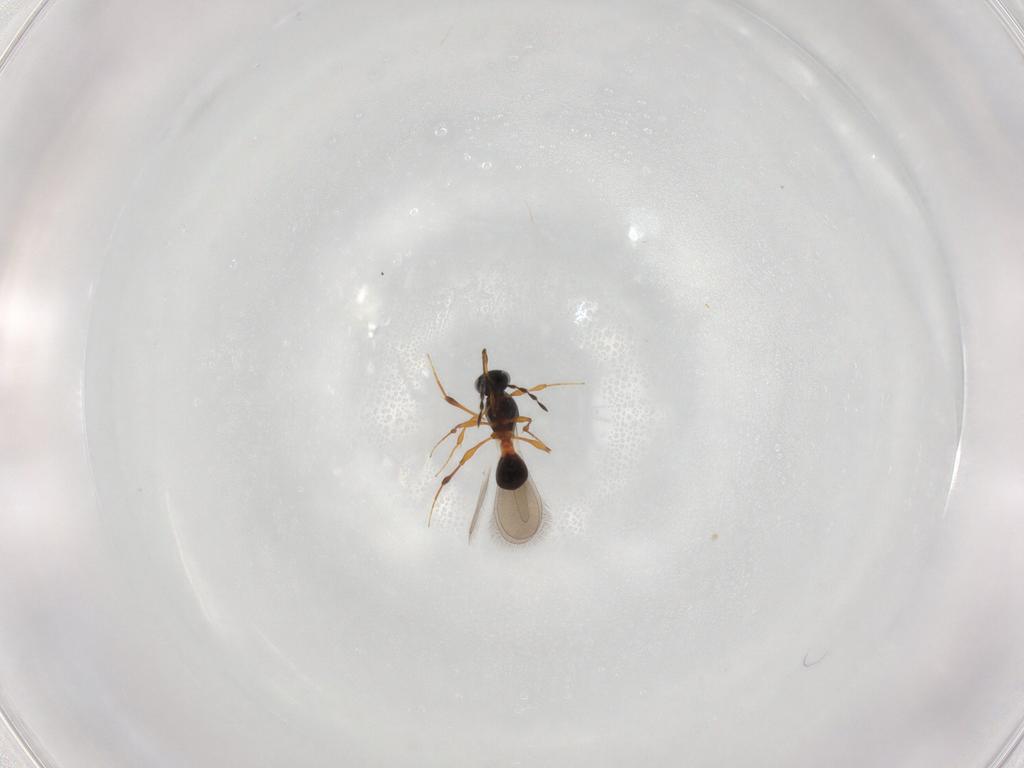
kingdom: Animalia
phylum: Arthropoda
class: Insecta
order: Hymenoptera
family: Platygastridae
